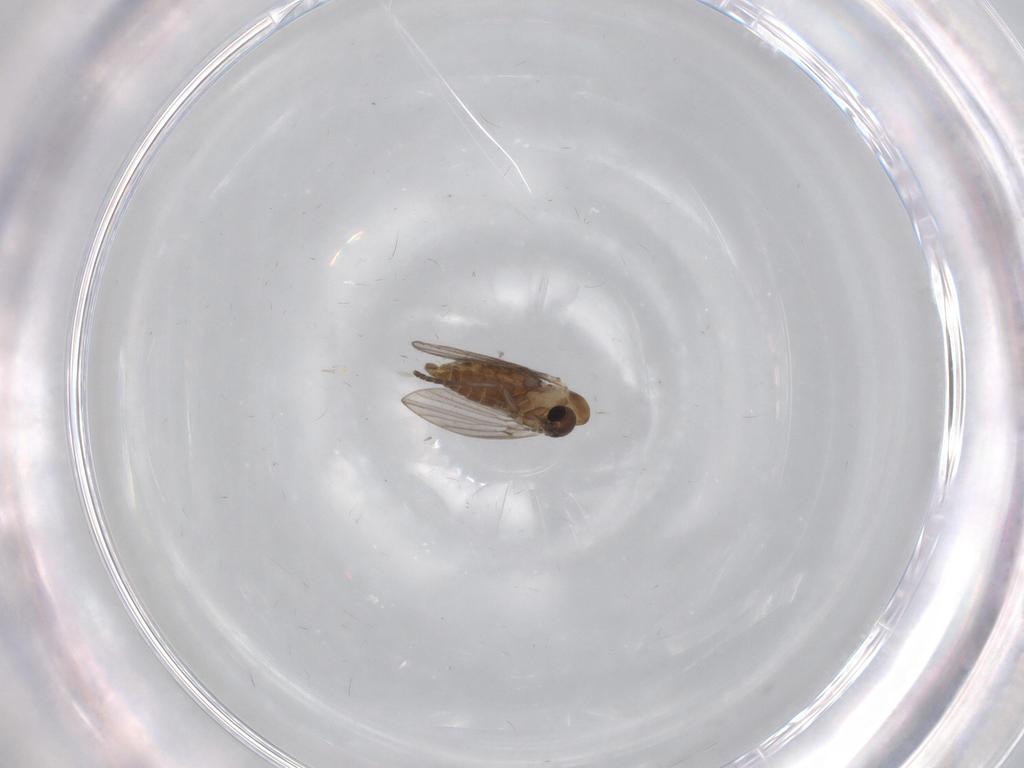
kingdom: Animalia
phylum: Arthropoda
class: Insecta
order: Diptera
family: Psychodidae
